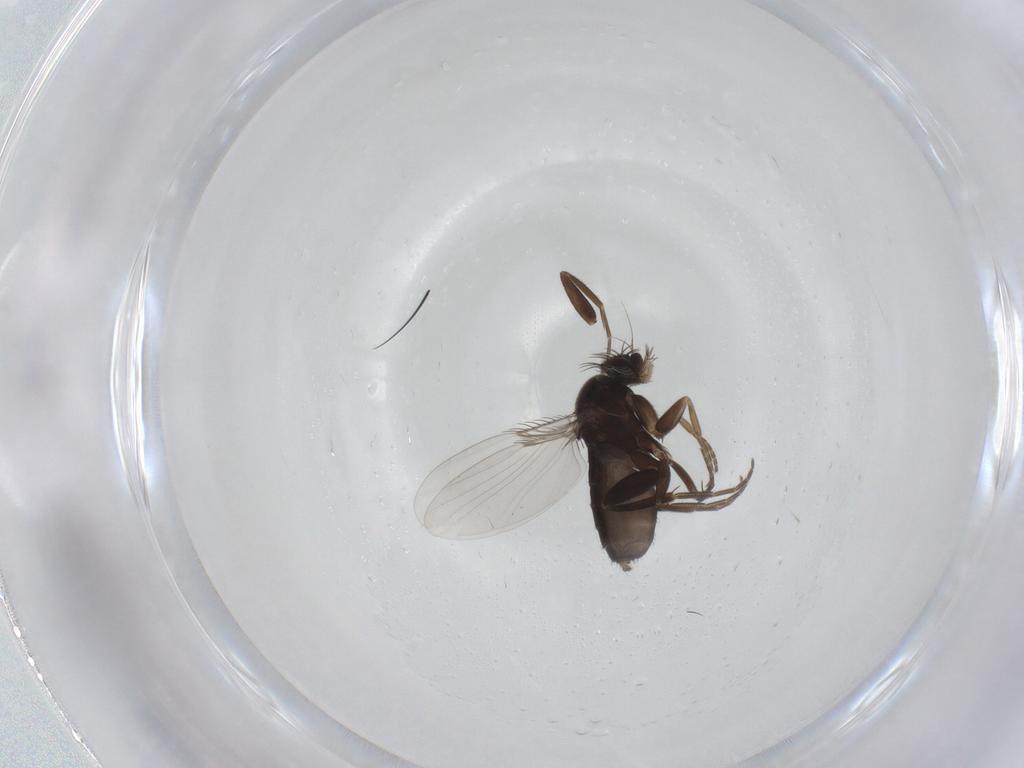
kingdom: Animalia
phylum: Arthropoda
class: Insecta
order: Diptera
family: Phoridae
